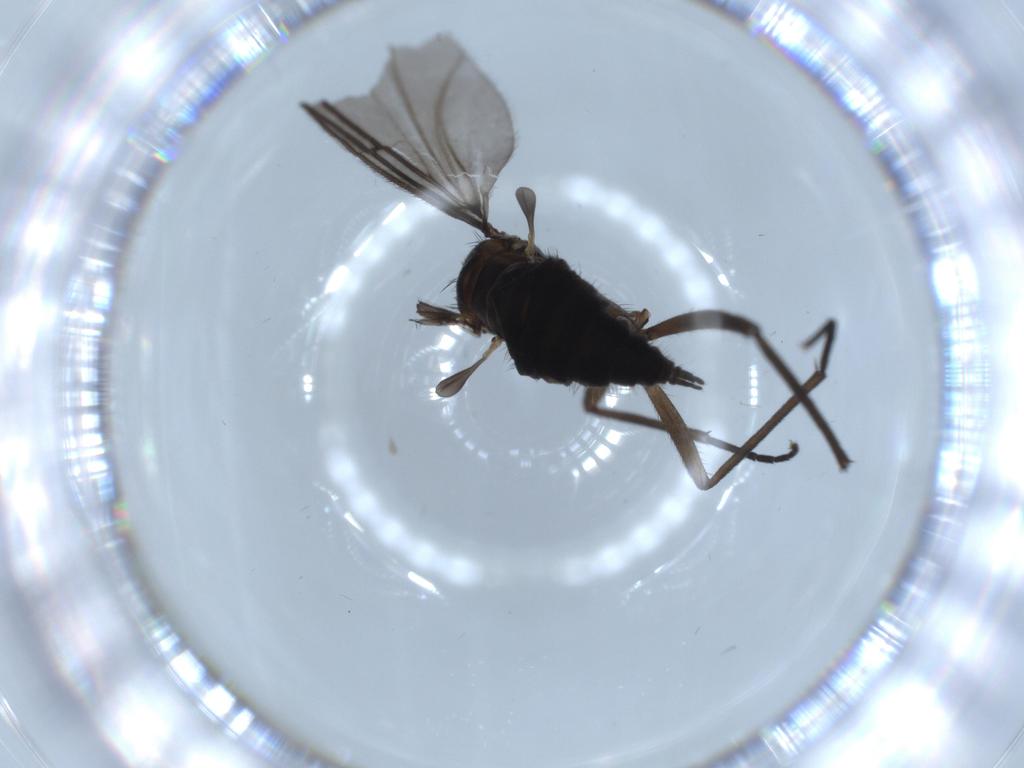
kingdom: Animalia
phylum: Arthropoda
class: Insecta
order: Diptera
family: Sciaridae
